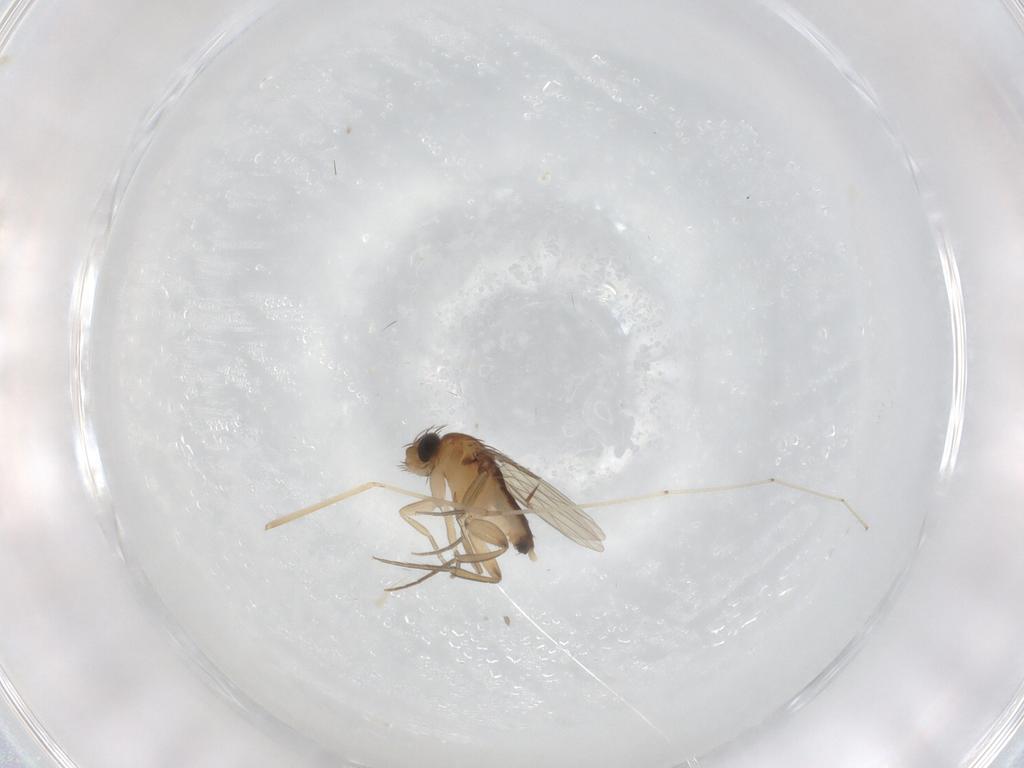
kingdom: Animalia
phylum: Arthropoda
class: Insecta
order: Diptera
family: Phoridae
